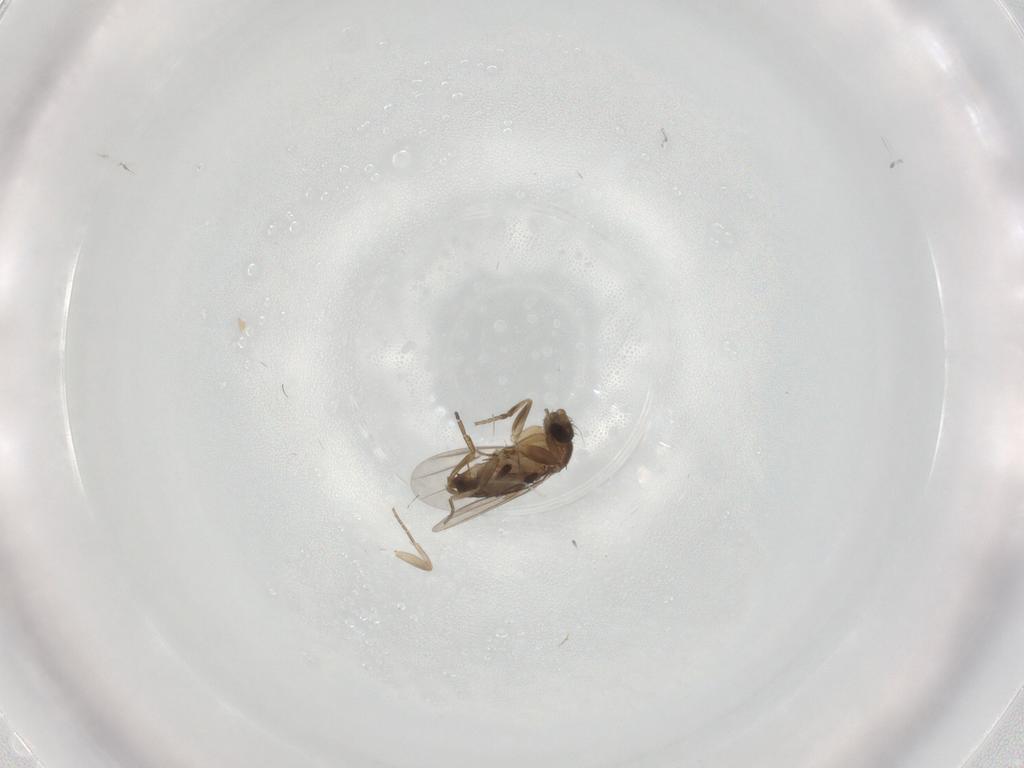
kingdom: Animalia
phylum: Arthropoda
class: Insecta
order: Diptera
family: Phoridae
